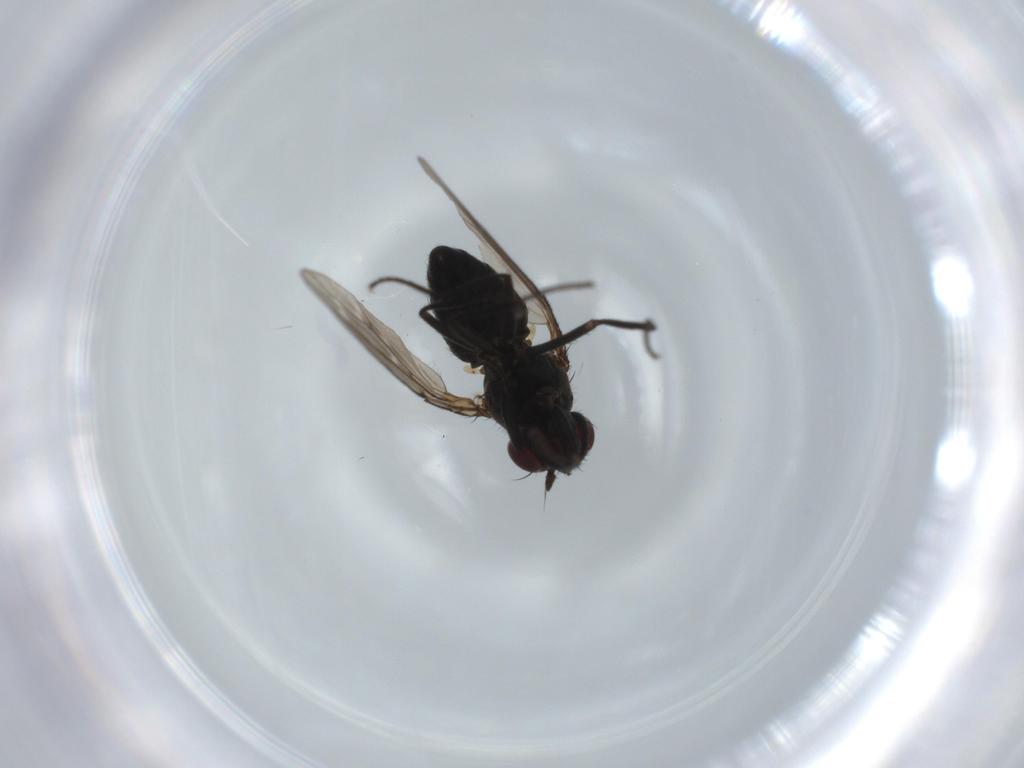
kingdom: Animalia
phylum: Arthropoda
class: Insecta
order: Diptera
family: Ephydridae
